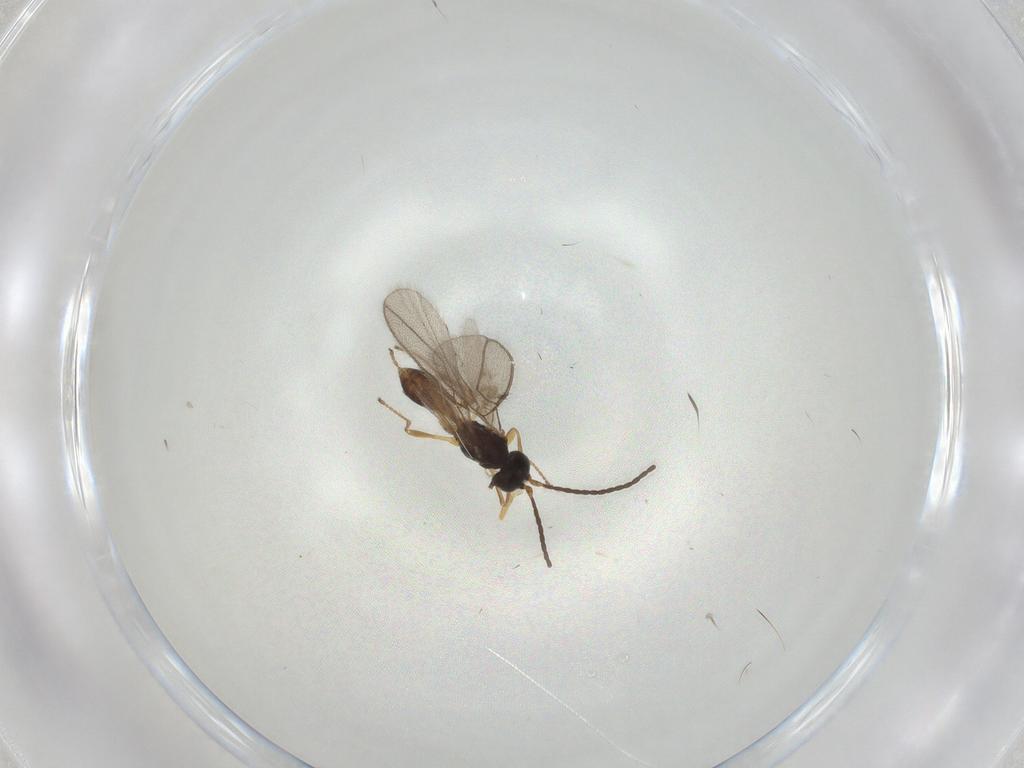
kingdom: Animalia
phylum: Arthropoda
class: Insecta
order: Hymenoptera
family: Braconidae
